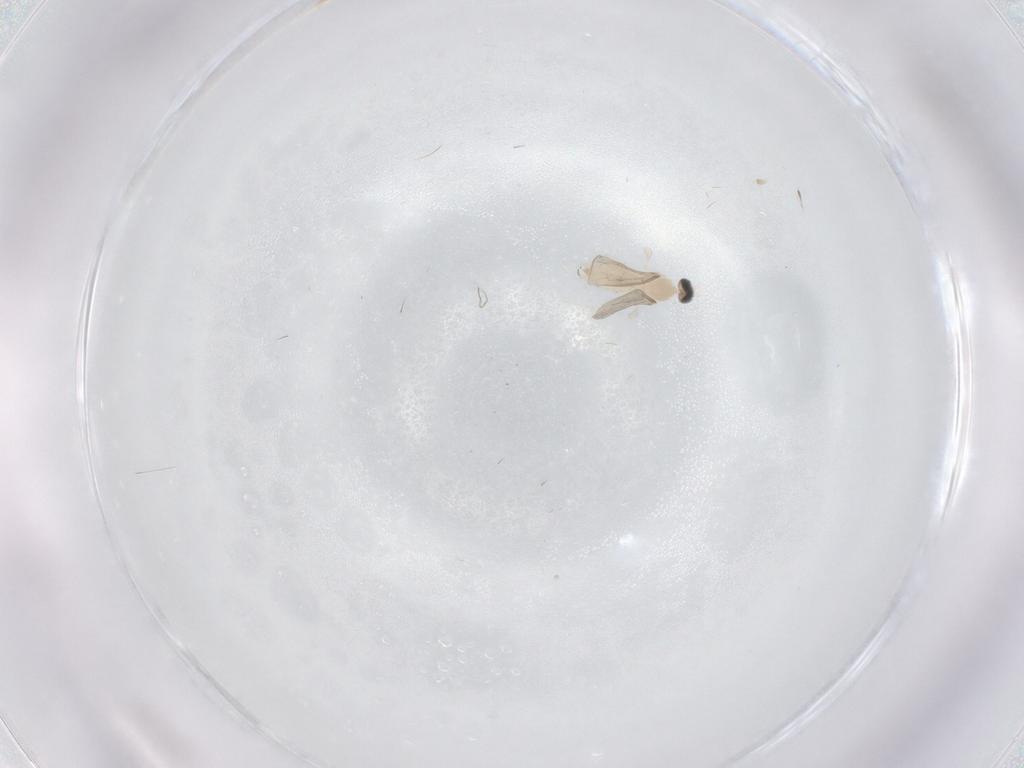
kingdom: Animalia
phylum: Arthropoda
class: Insecta
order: Diptera
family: Cecidomyiidae
